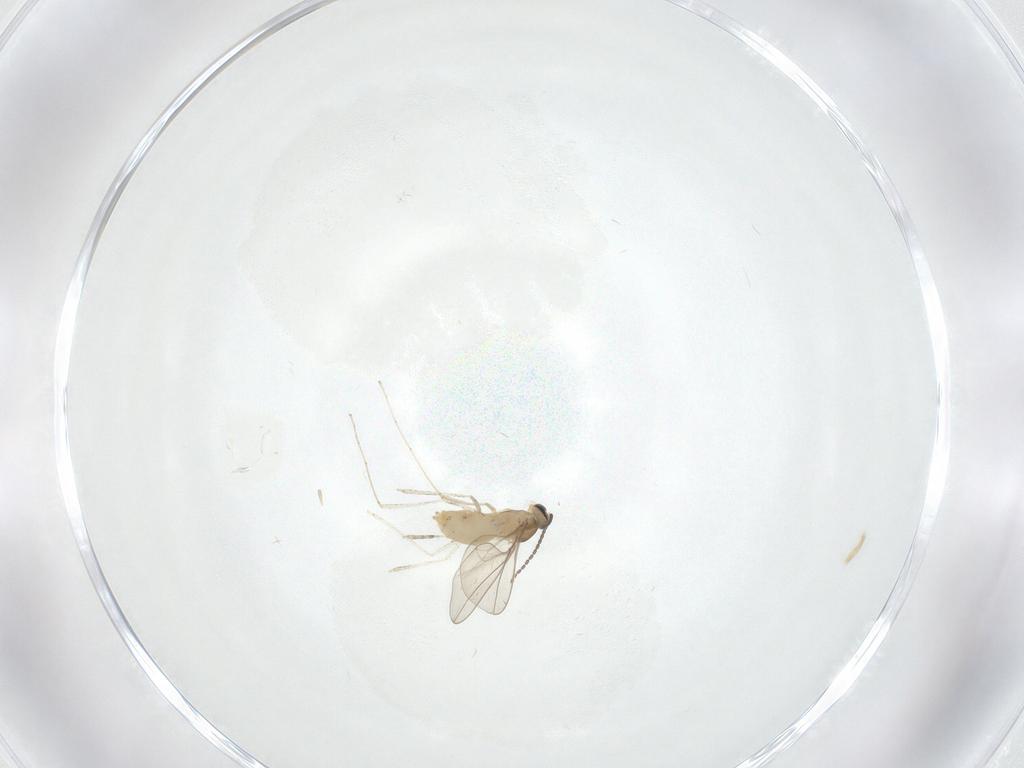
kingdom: Animalia
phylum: Arthropoda
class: Insecta
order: Diptera
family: Cecidomyiidae
